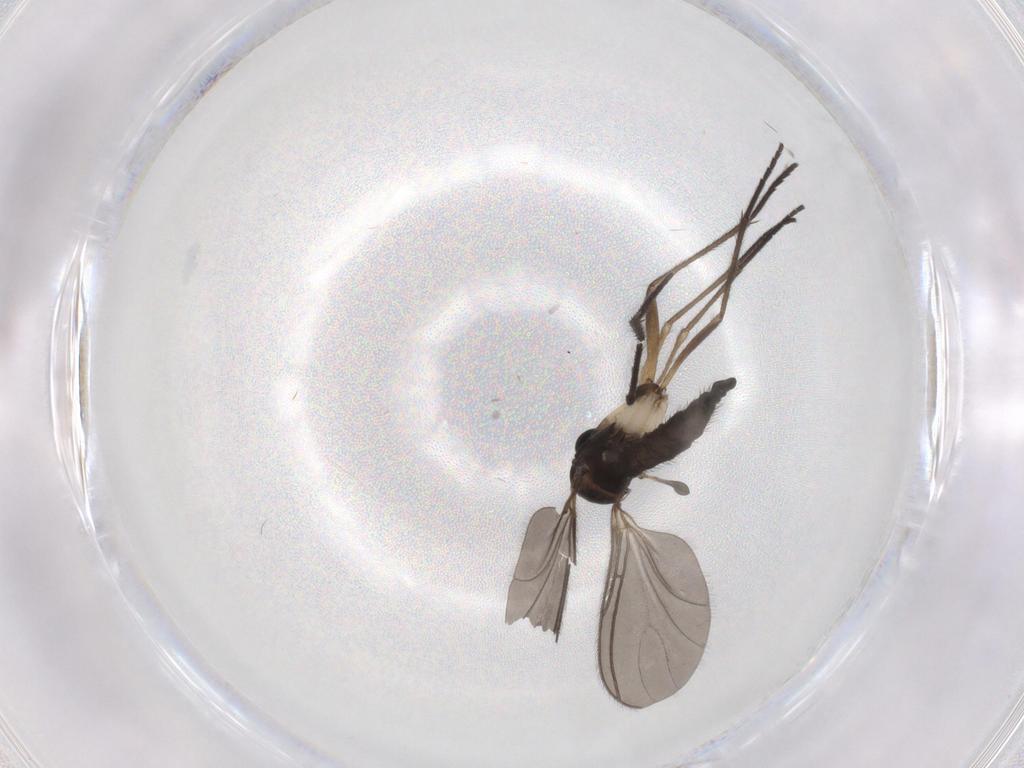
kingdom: Animalia
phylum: Arthropoda
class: Insecta
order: Diptera
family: Sciaridae
